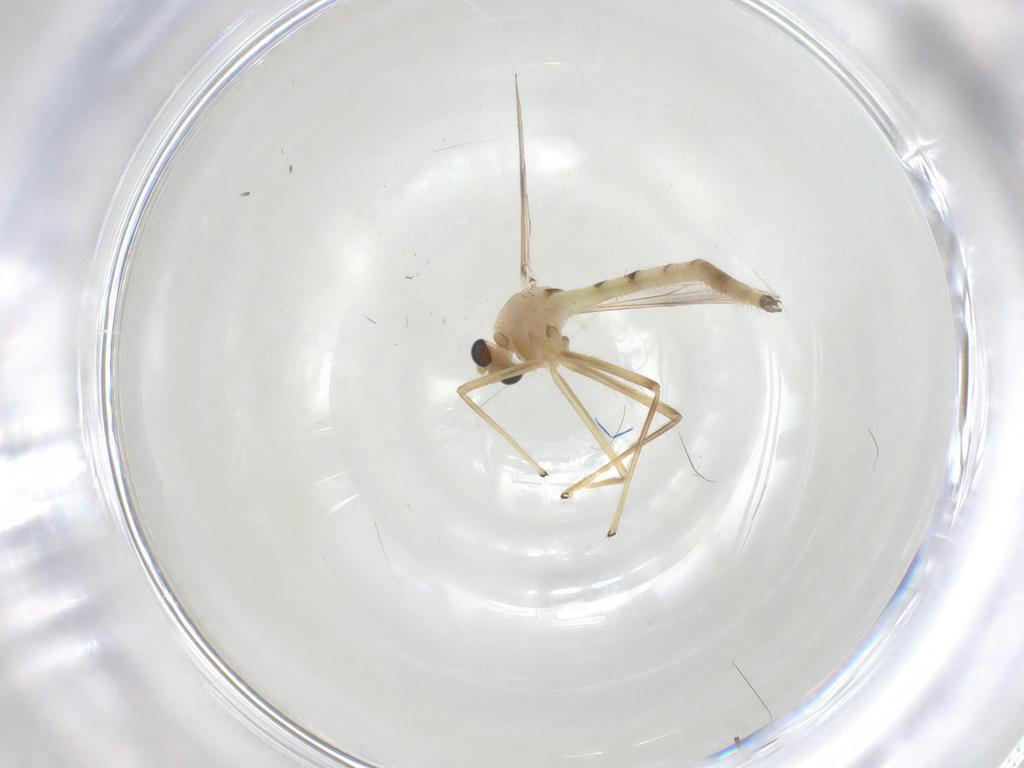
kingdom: Animalia
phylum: Arthropoda
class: Insecta
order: Diptera
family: Chironomidae
